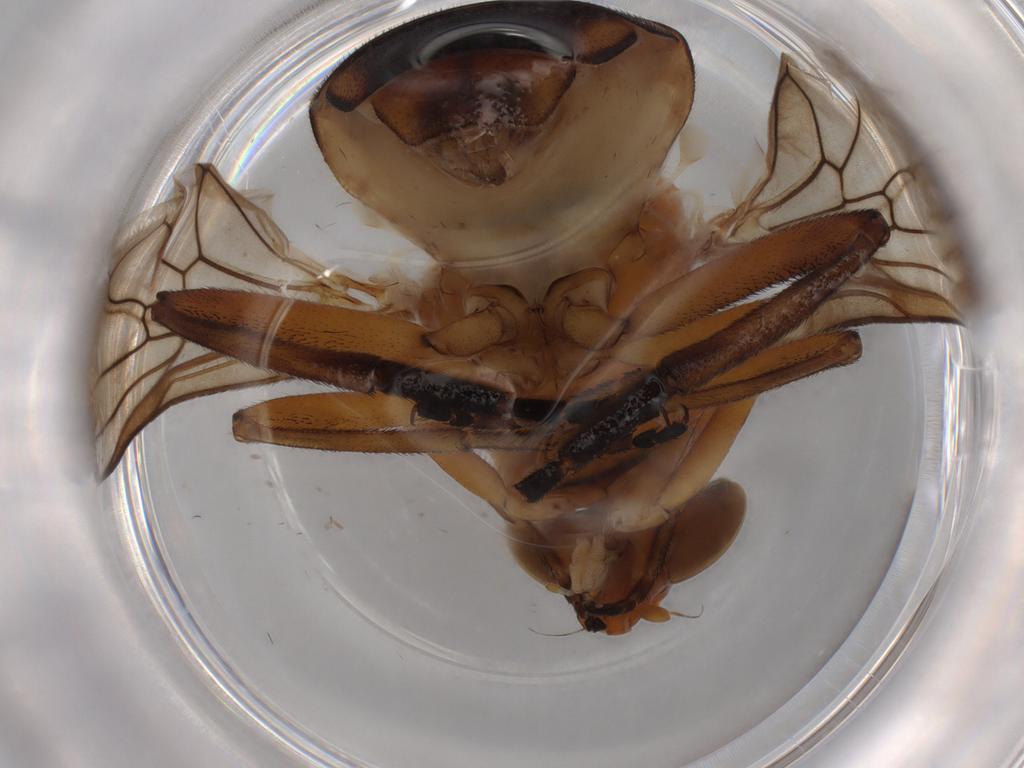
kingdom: Animalia
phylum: Arthropoda
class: Insecta
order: Diptera
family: Syrphidae
